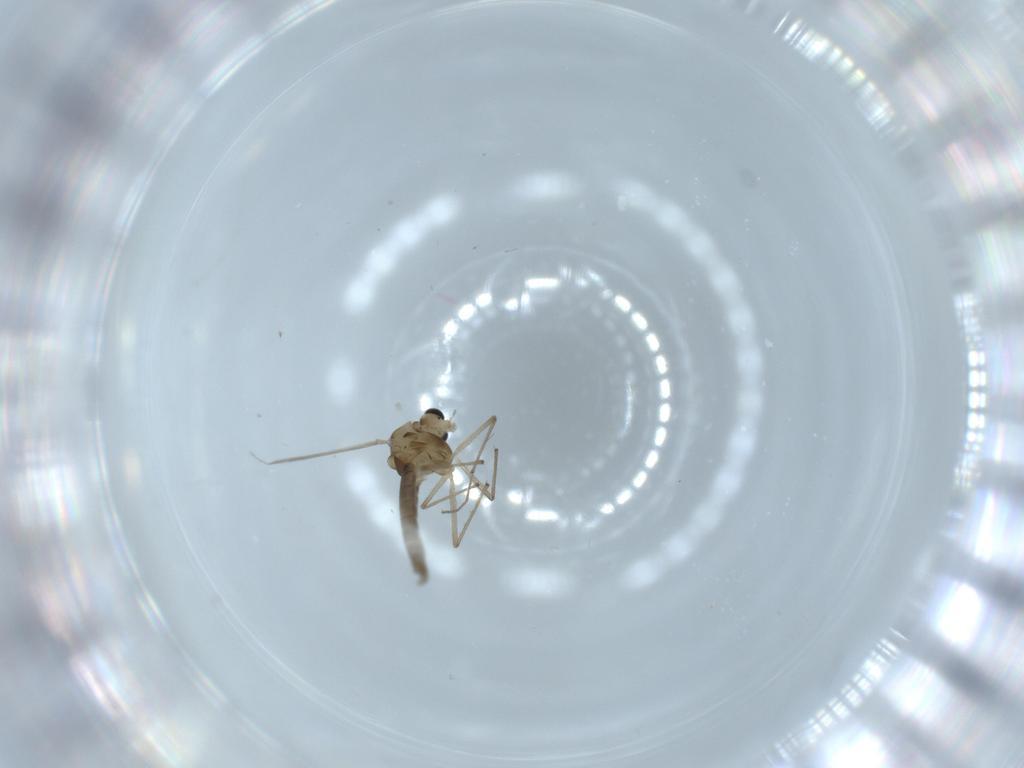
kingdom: Animalia
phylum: Arthropoda
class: Insecta
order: Diptera
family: Chironomidae
